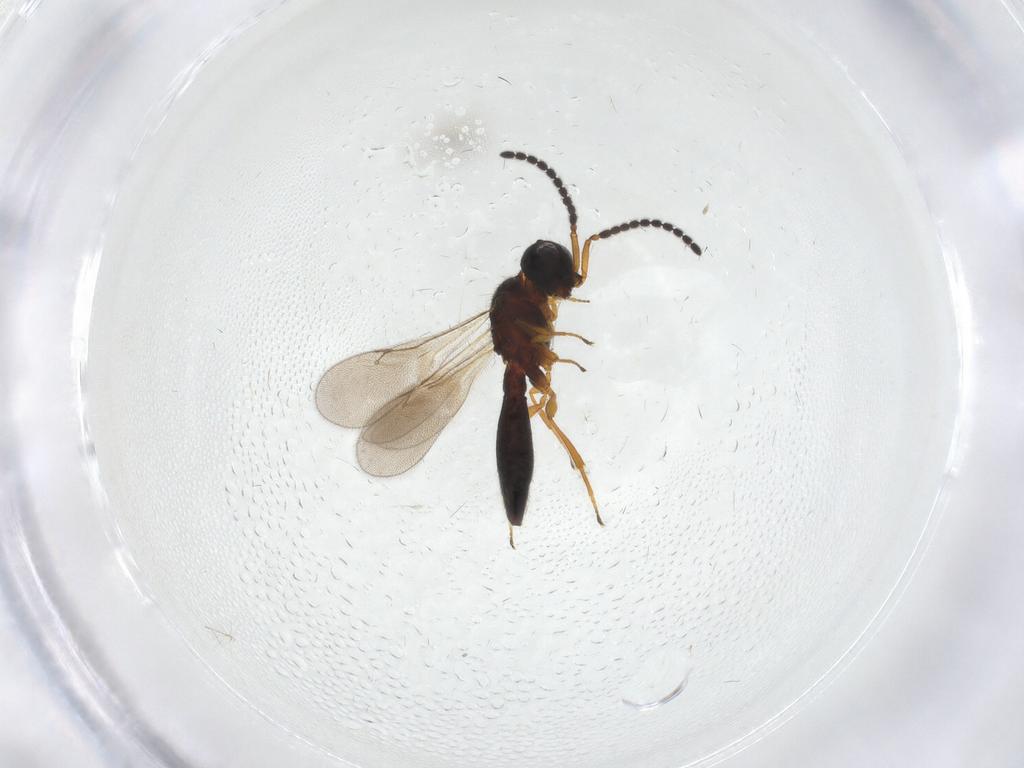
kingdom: Animalia
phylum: Arthropoda
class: Insecta
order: Hymenoptera
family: Scelionidae
